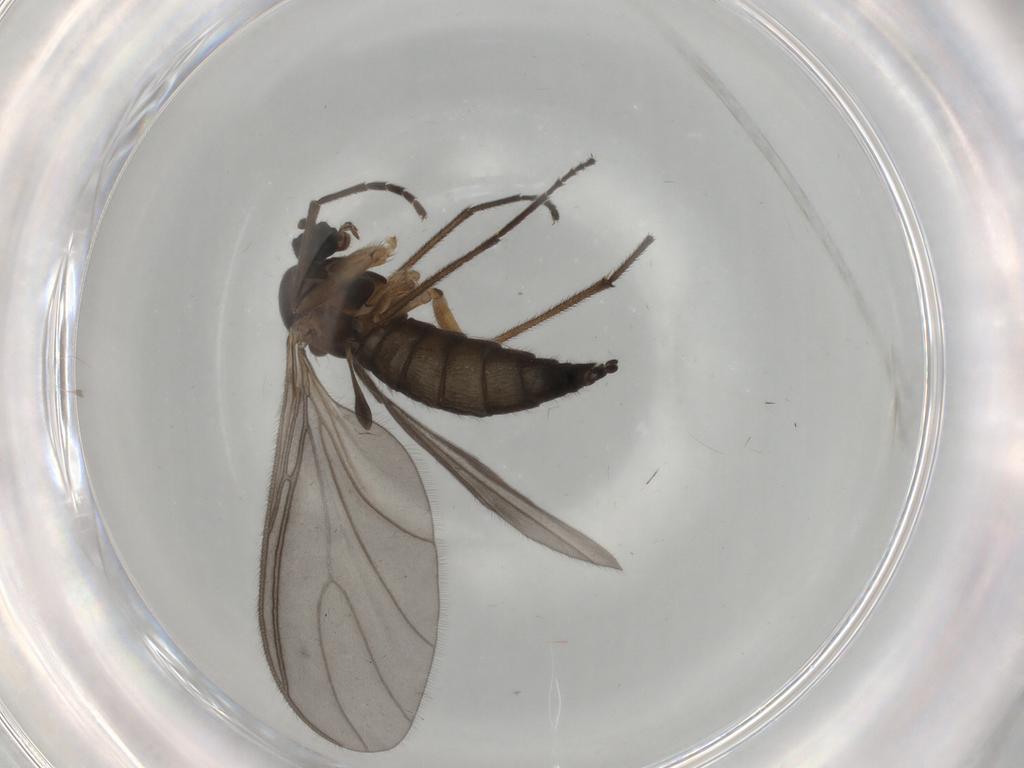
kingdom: Animalia
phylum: Arthropoda
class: Insecta
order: Diptera
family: Sciaridae
